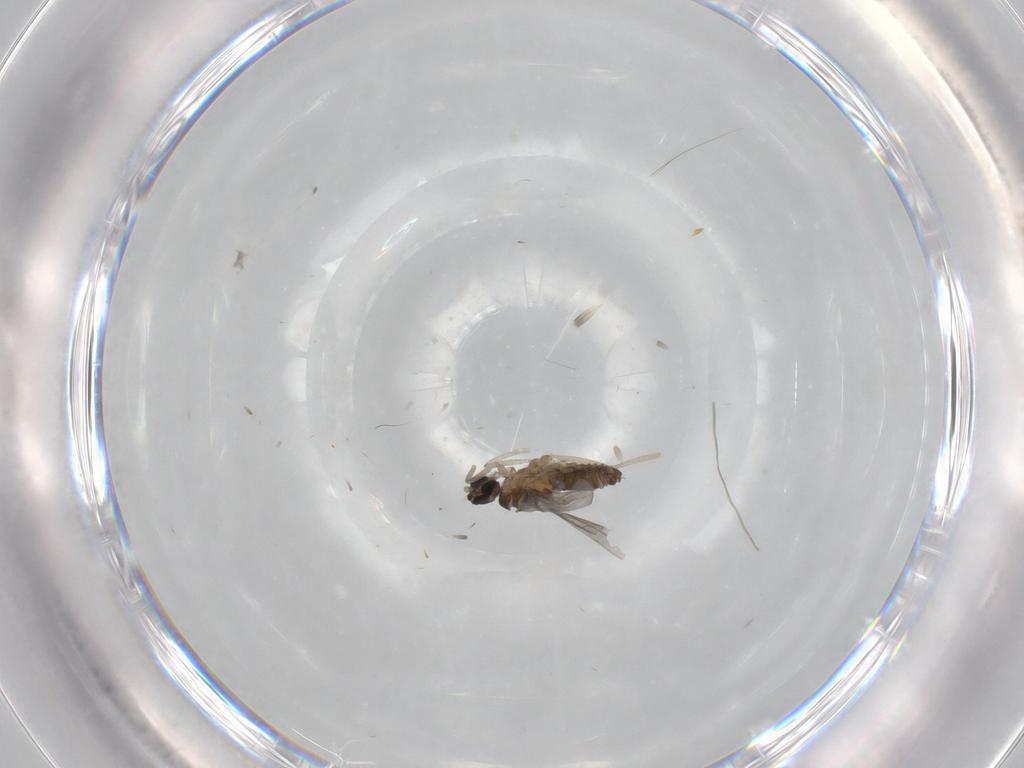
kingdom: Animalia
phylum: Arthropoda
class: Insecta
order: Diptera
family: Cecidomyiidae
